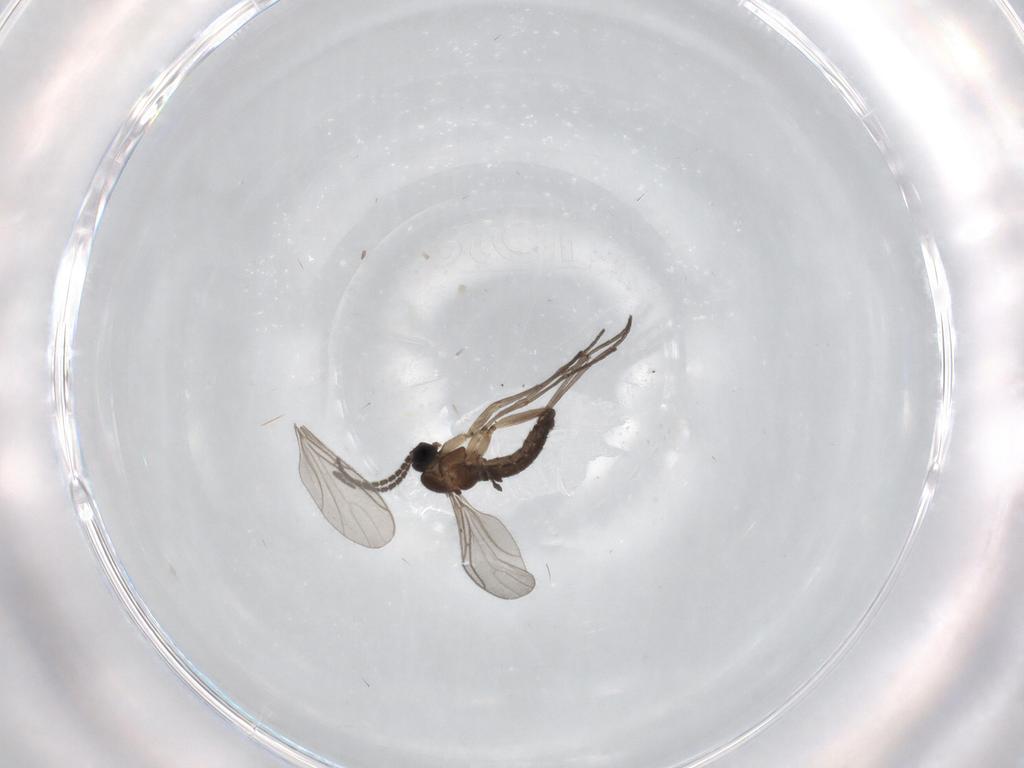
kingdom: Animalia
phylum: Arthropoda
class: Insecta
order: Diptera
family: Sciaridae
